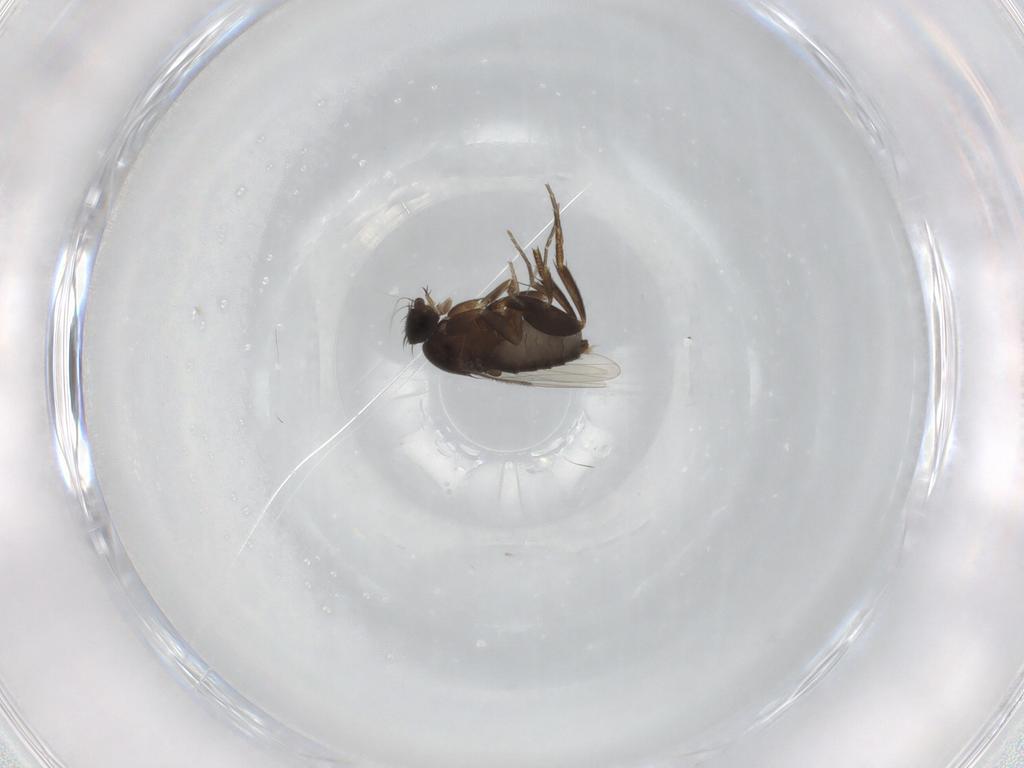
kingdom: Animalia
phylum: Arthropoda
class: Insecta
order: Diptera
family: Phoridae
